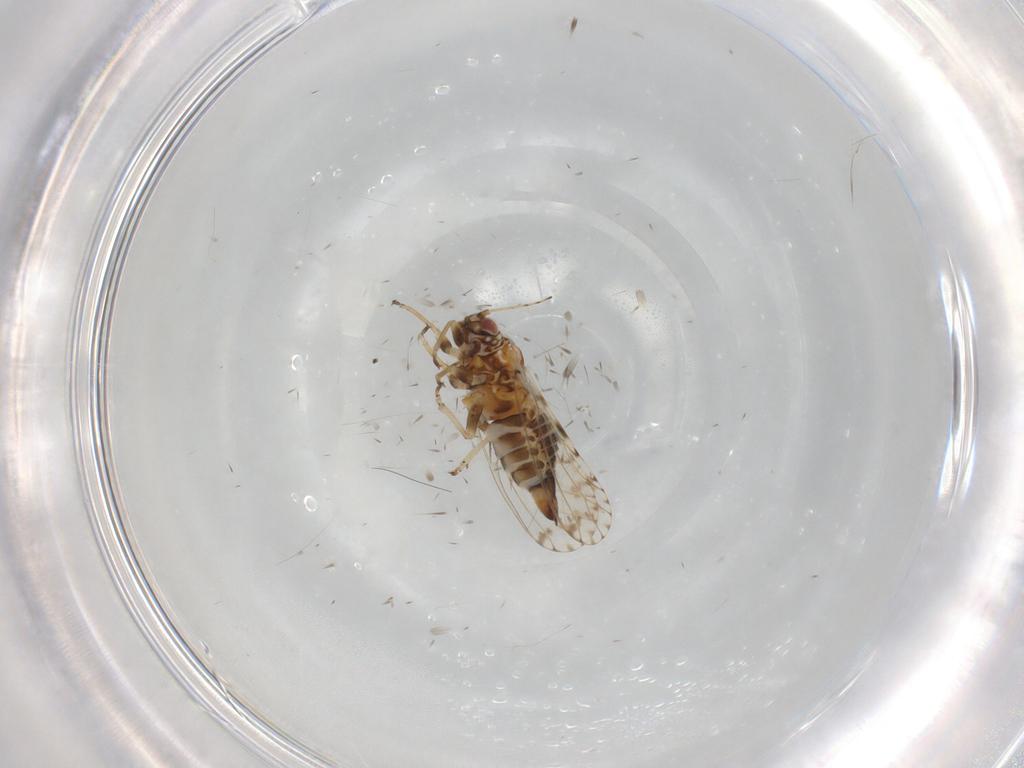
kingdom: Animalia
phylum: Arthropoda
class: Insecta
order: Hemiptera
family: Psyllidae
